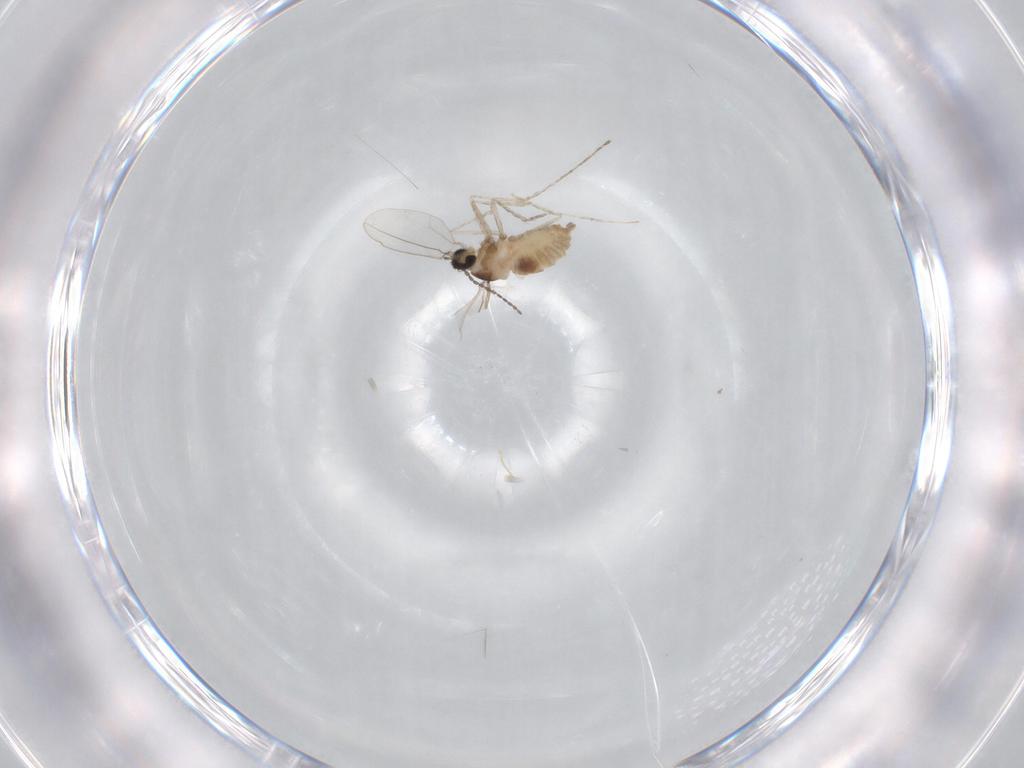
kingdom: Animalia
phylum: Arthropoda
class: Insecta
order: Diptera
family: Cecidomyiidae
